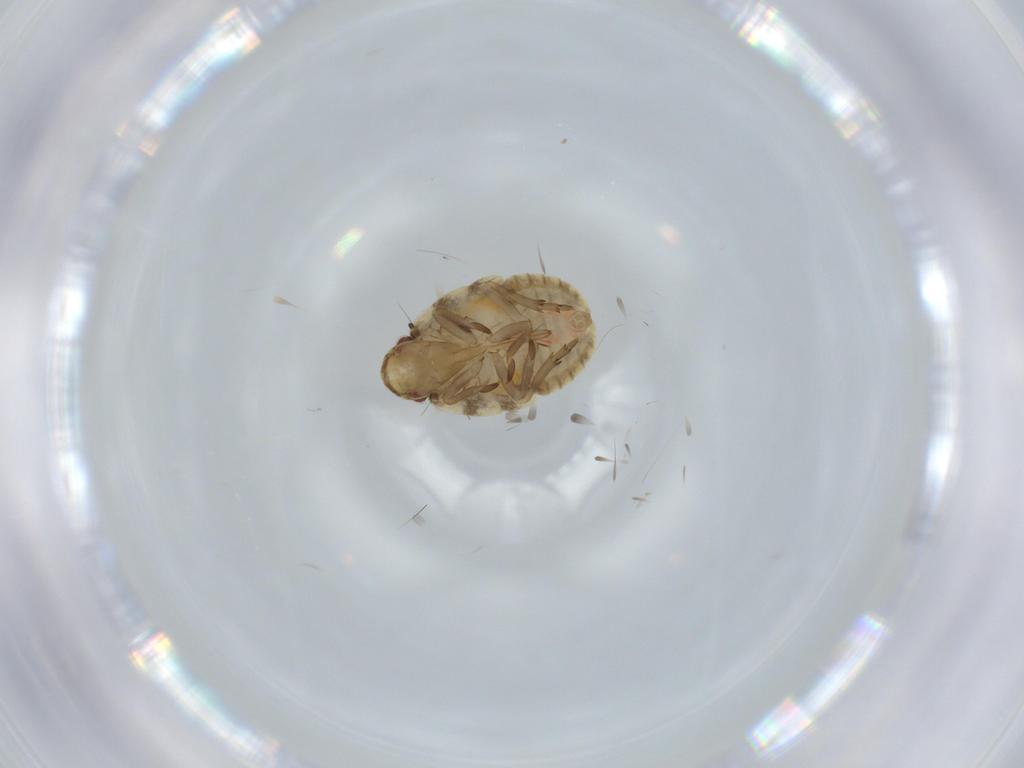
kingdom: Animalia
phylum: Arthropoda
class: Insecta
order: Hemiptera
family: Flatidae
